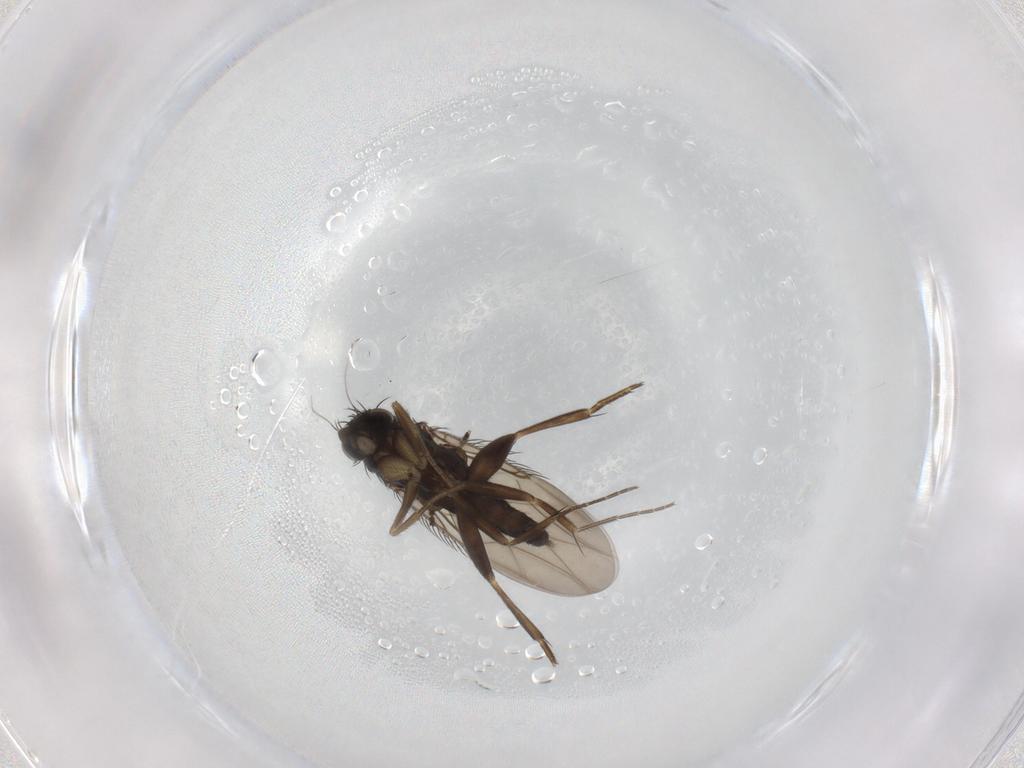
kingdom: Animalia
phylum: Arthropoda
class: Insecta
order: Diptera
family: Phoridae
